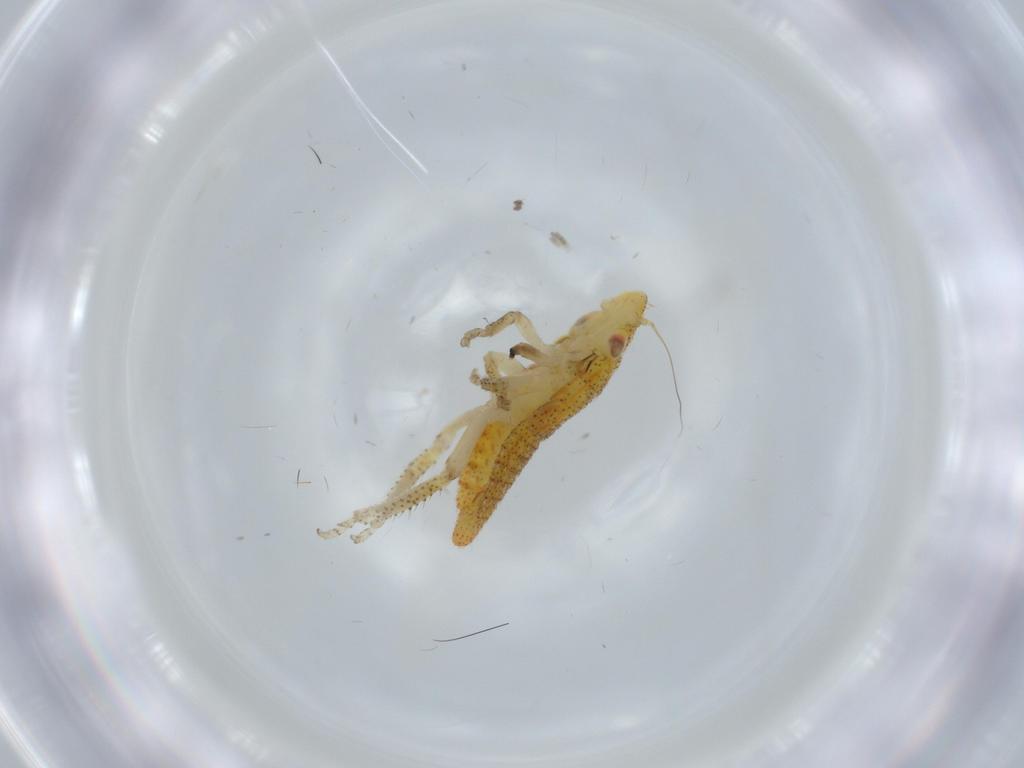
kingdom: Animalia
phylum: Arthropoda
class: Insecta
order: Hemiptera
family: Cicadellidae
